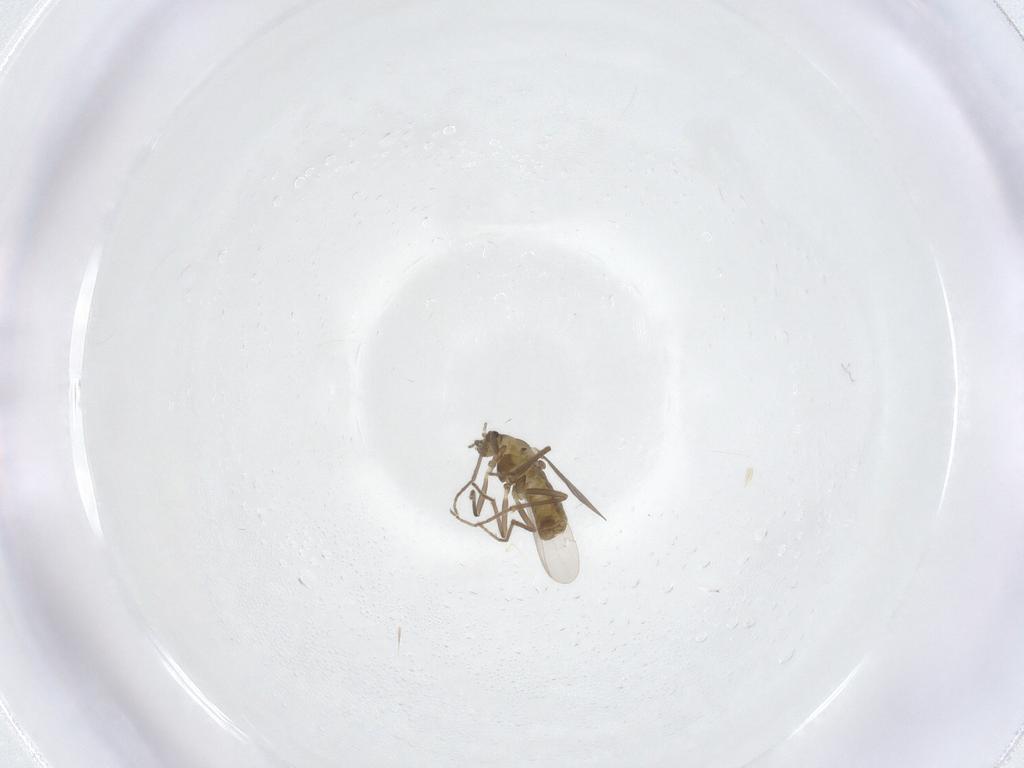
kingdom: Animalia
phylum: Arthropoda
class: Insecta
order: Diptera
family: Chironomidae
